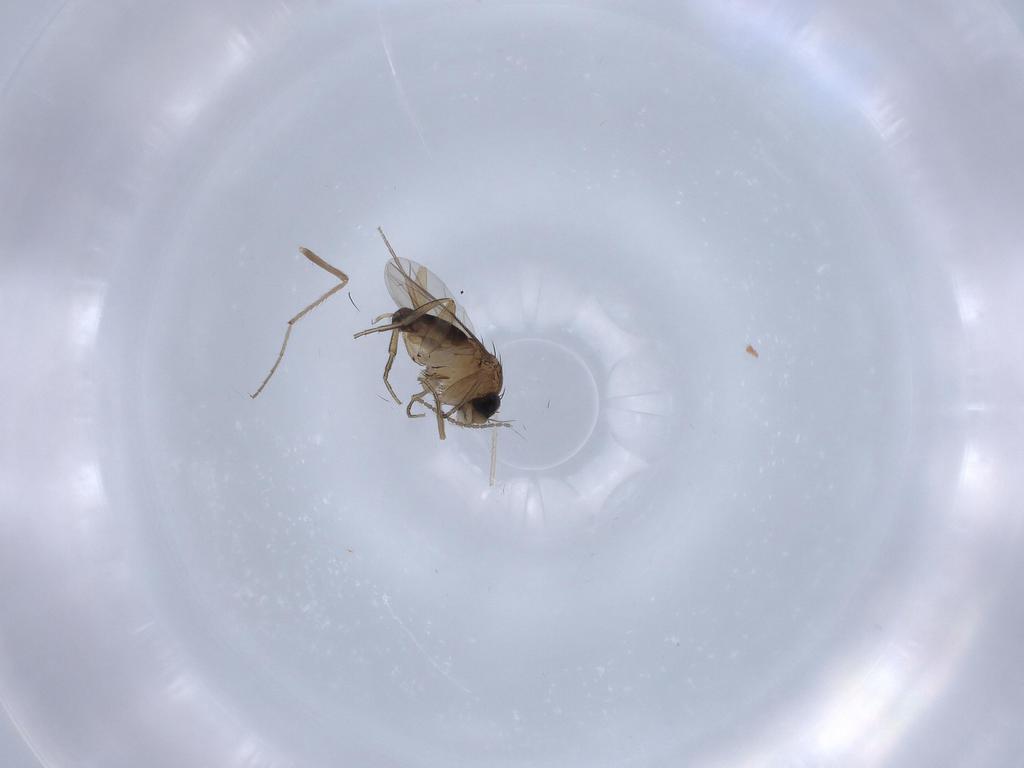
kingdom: Animalia
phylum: Arthropoda
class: Insecta
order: Diptera
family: Phoridae
